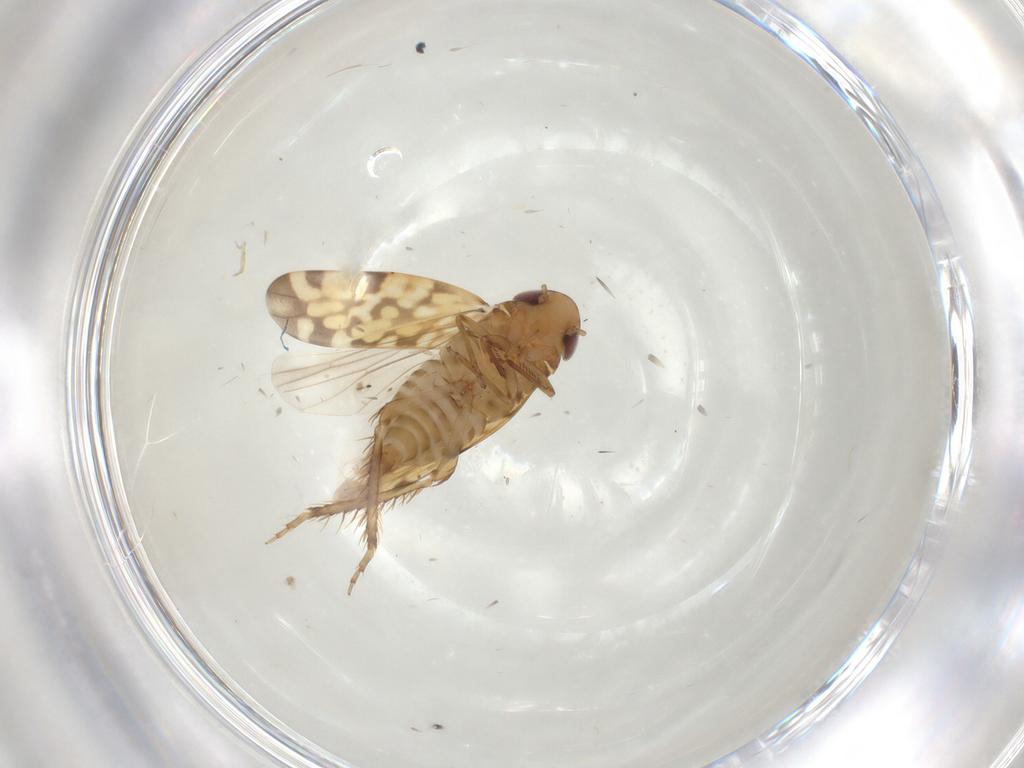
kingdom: Animalia
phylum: Arthropoda
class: Insecta
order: Hemiptera
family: Cicadellidae
